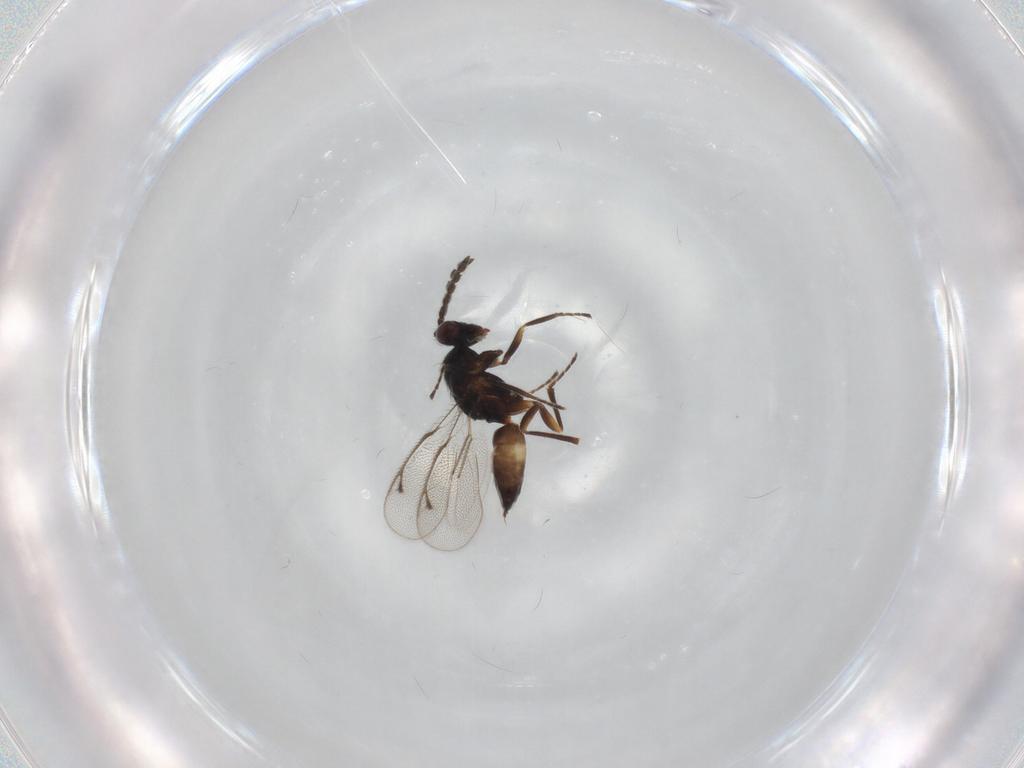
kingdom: Animalia
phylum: Arthropoda
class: Insecta
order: Hymenoptera
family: Eulophidae
